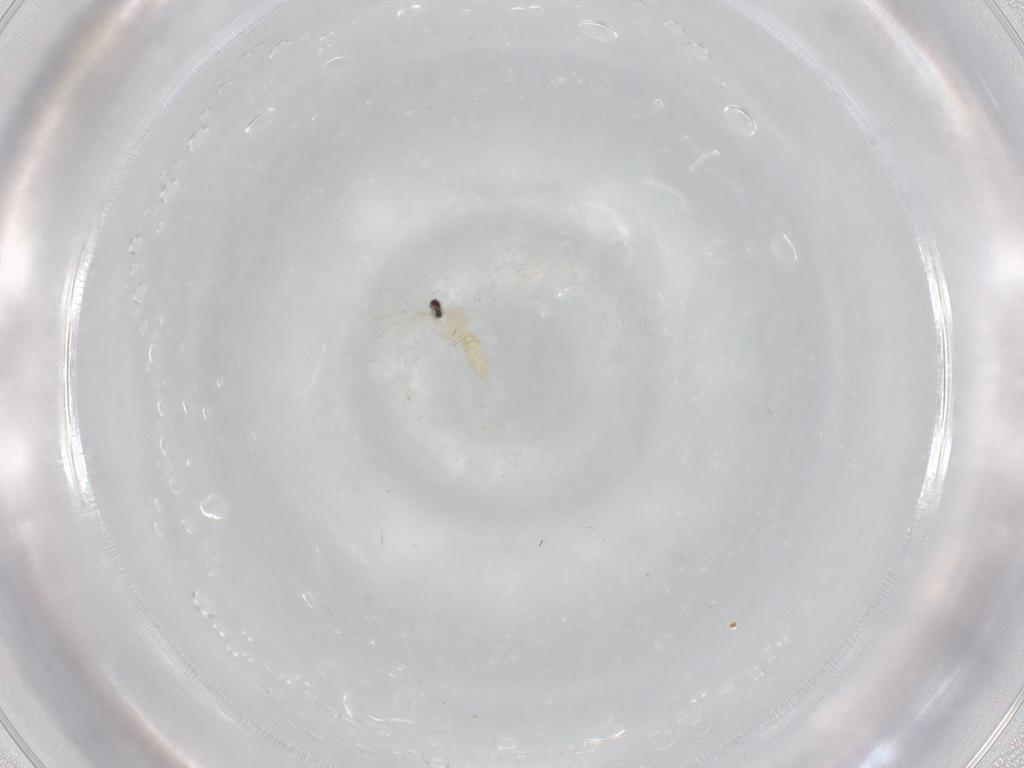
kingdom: Animalia
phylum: Arthropoda
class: Insecta
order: Diptera
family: Cecidomyiidae
